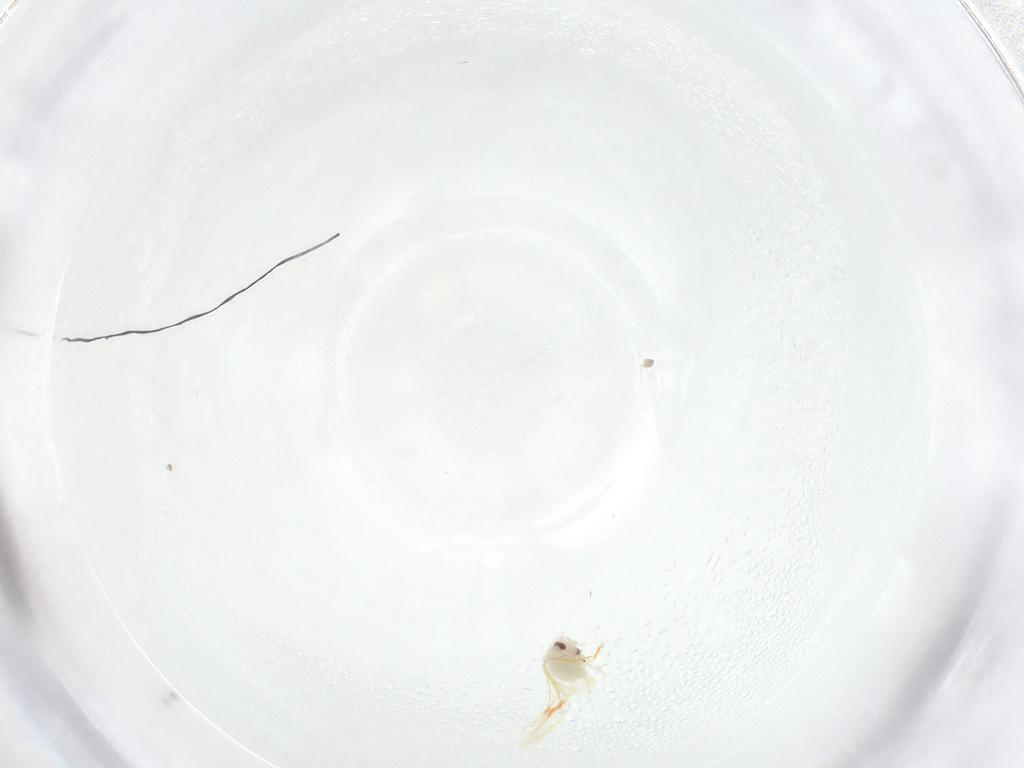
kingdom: Animalia
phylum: Arthropoda
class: Insecta
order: Hemiptera
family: Aleyrodidae
